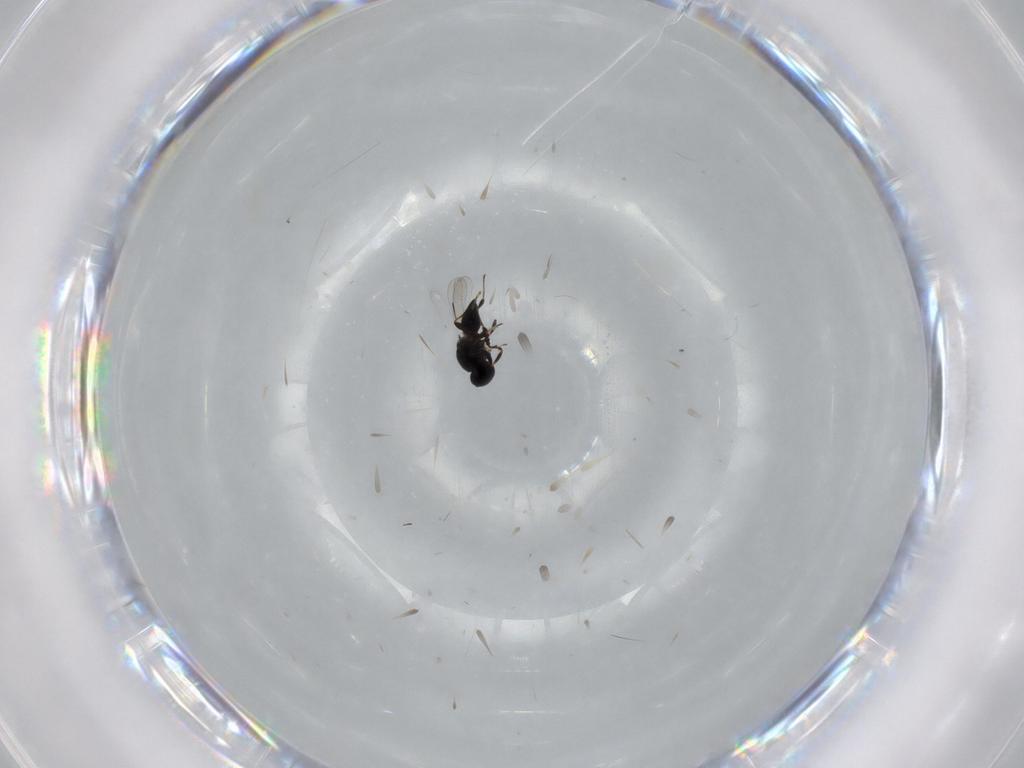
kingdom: Animalia
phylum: Arthropoda
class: Insecta
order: Hymenoptera
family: Platygastridae
